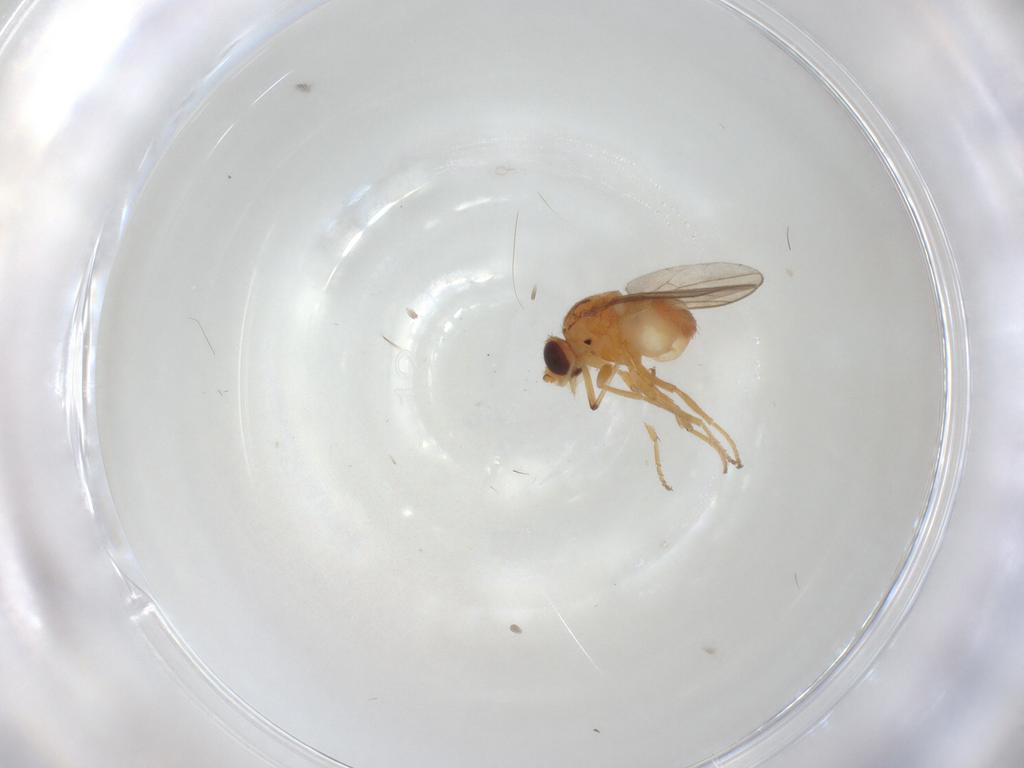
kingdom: Animalia
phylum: Arthropoda
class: Insecta
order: Diptera
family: Chloropidae
